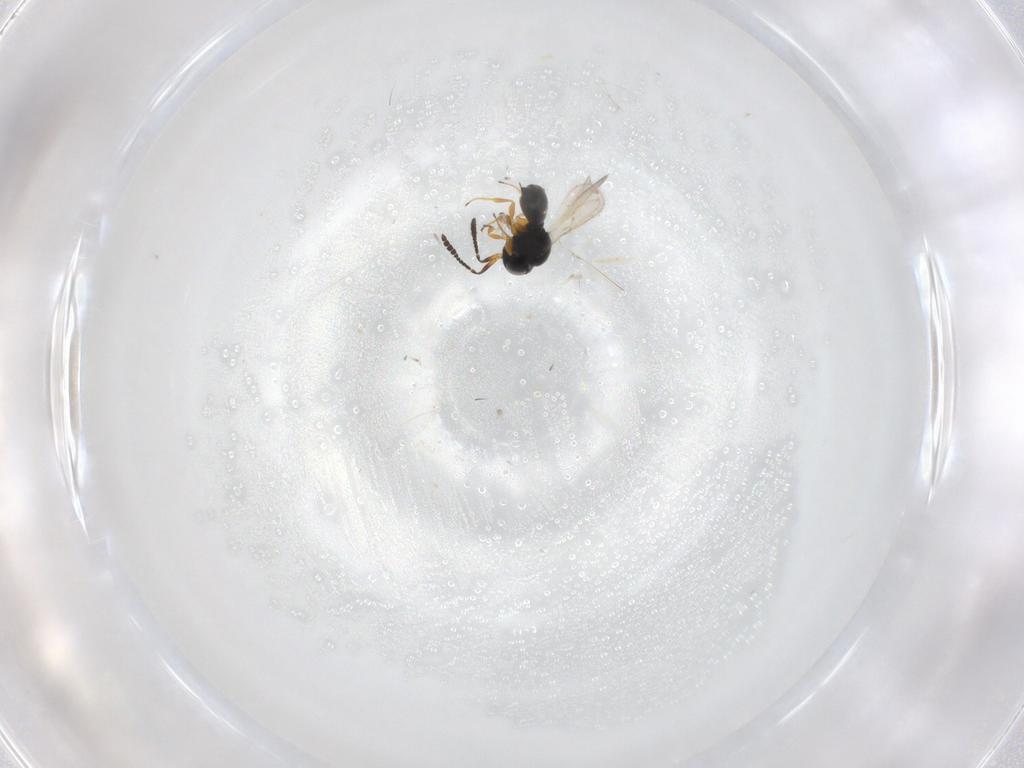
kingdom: Animalia
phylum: Arthropoda
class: Insecta
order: Hymenoptera
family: Scelionidae
